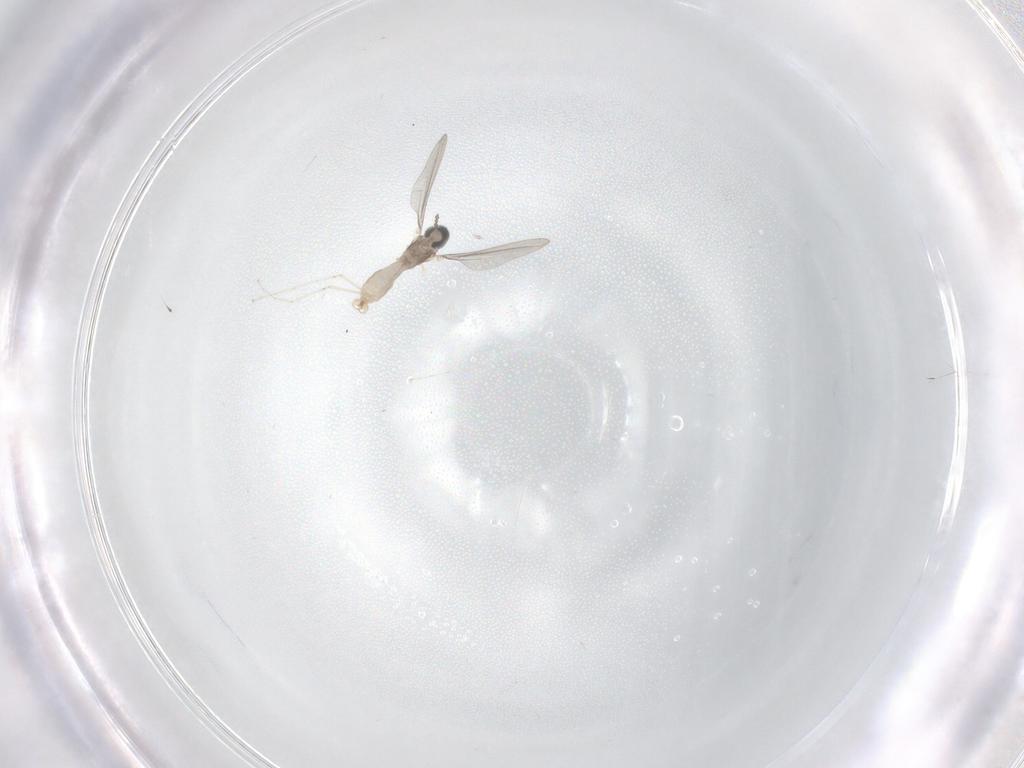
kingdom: Animalia
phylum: Arthropoda
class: Insecta
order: Diptera
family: Cecidomyiidae
